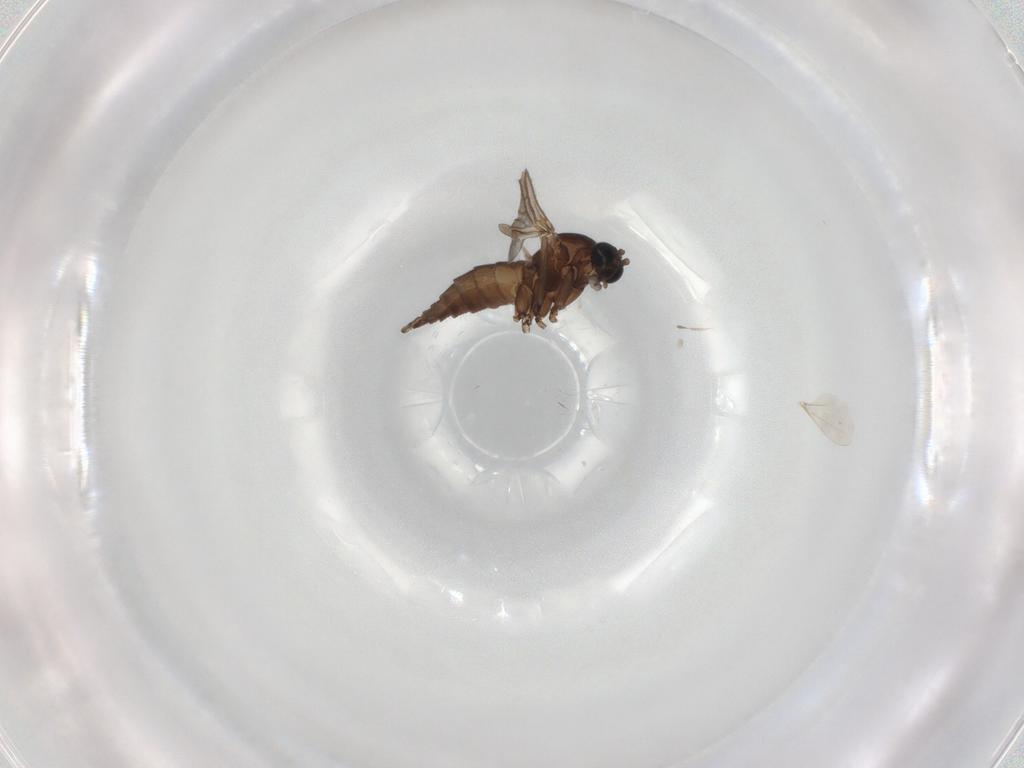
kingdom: Animalia
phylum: Arthropoda
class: Insecta
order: Diptera
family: Sciaridae
